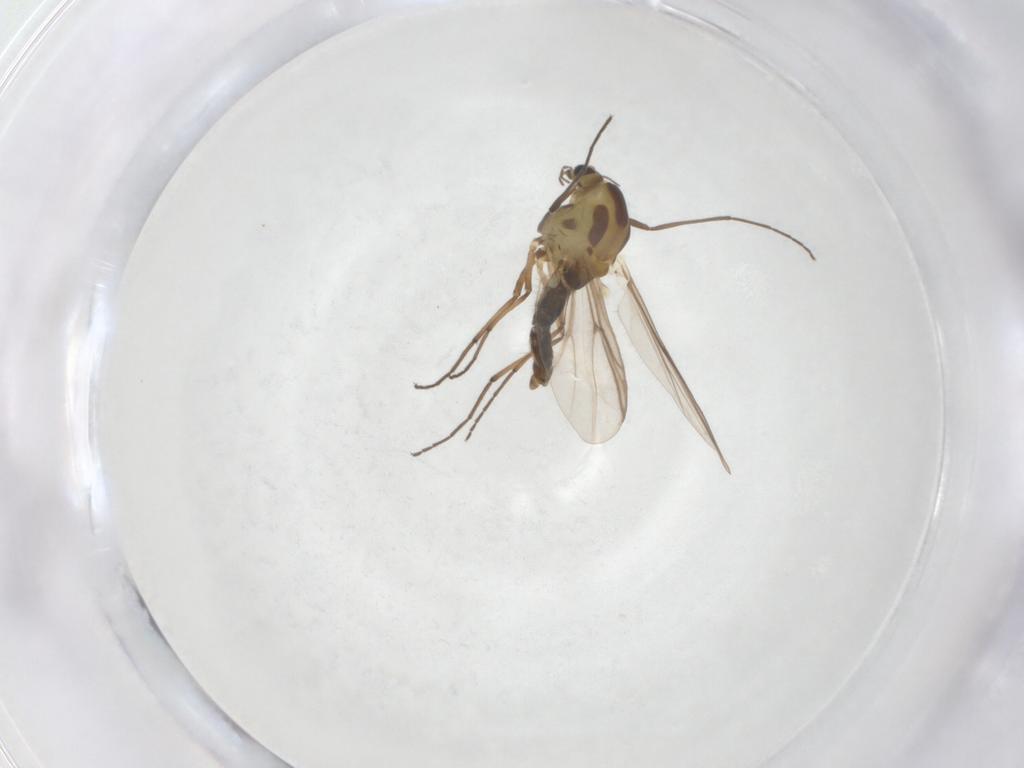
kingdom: Animalia
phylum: Arthropoda
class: Insecta
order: Diptera
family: Chironomidae
